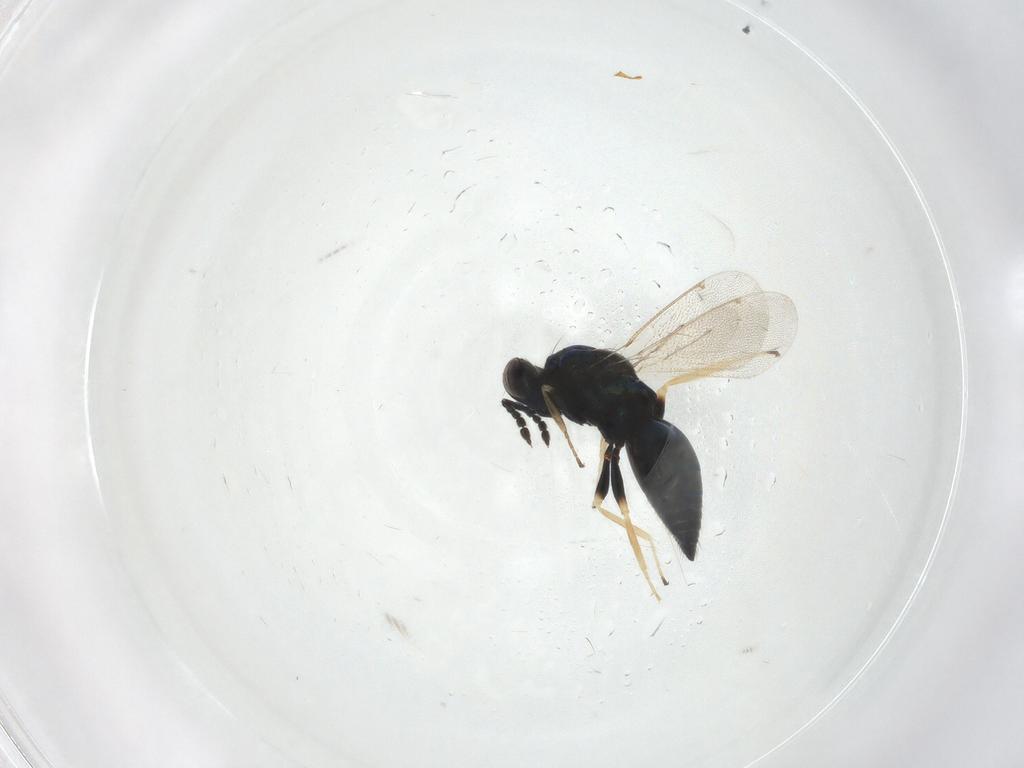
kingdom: Animalia
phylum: Arthropoda
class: Insecta
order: Hymenoptera
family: Eulophidae
